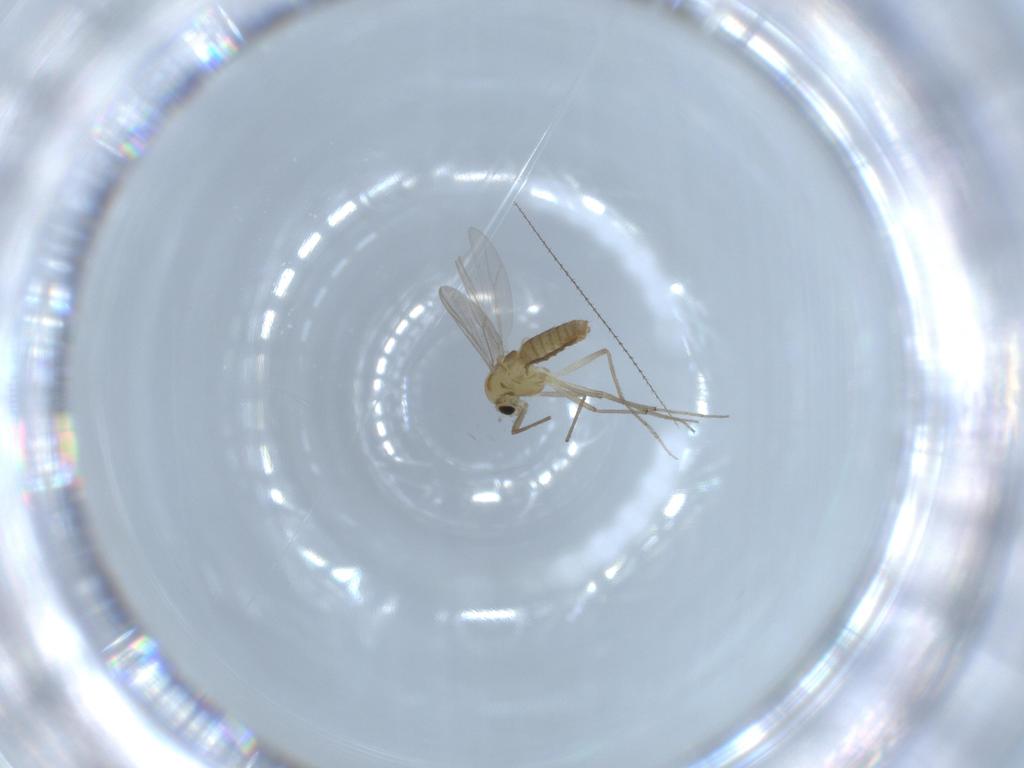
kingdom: Animalia
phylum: Arthropoda
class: Insecta
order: Diptera
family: Chironomidae
